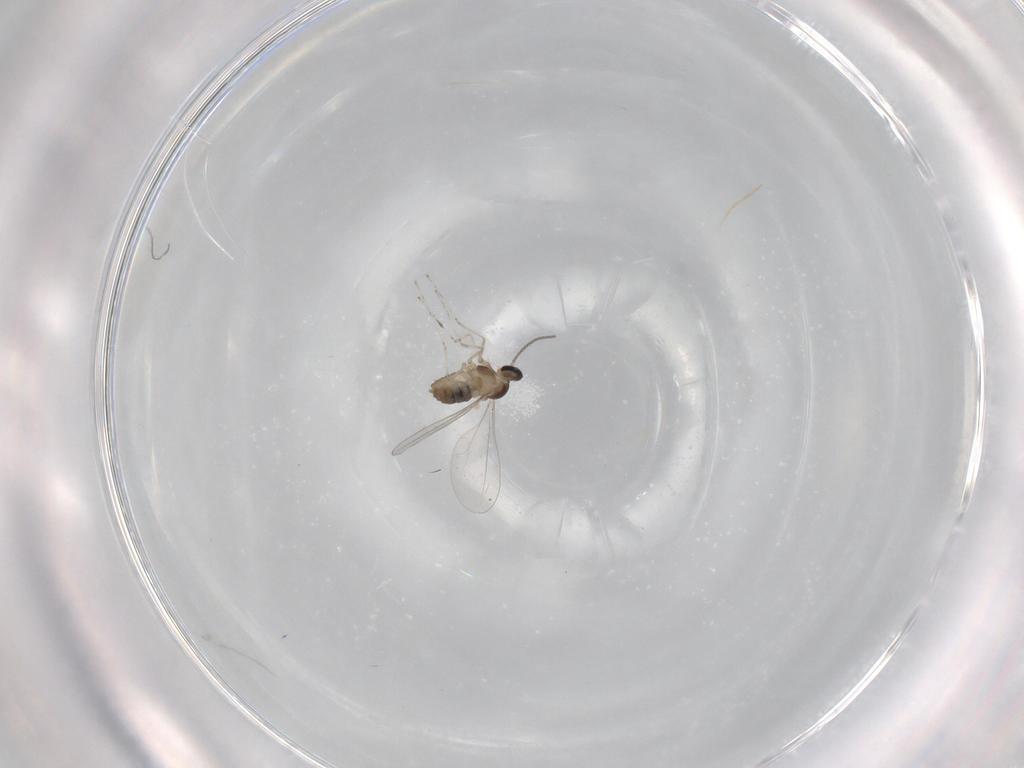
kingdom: Animalia
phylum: Arthropoda
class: Insecta
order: Diptera
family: Cecidomyiidae
